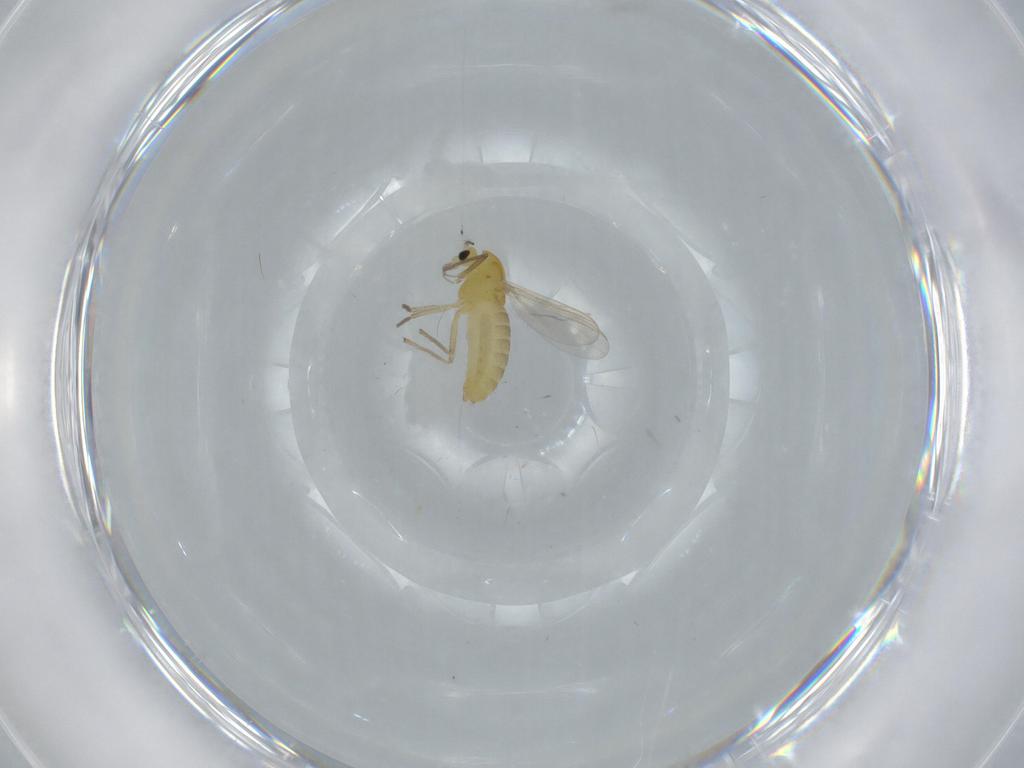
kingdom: Animalia
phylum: Arthropoda
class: Insecta
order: Diptera
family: Chironomidae
